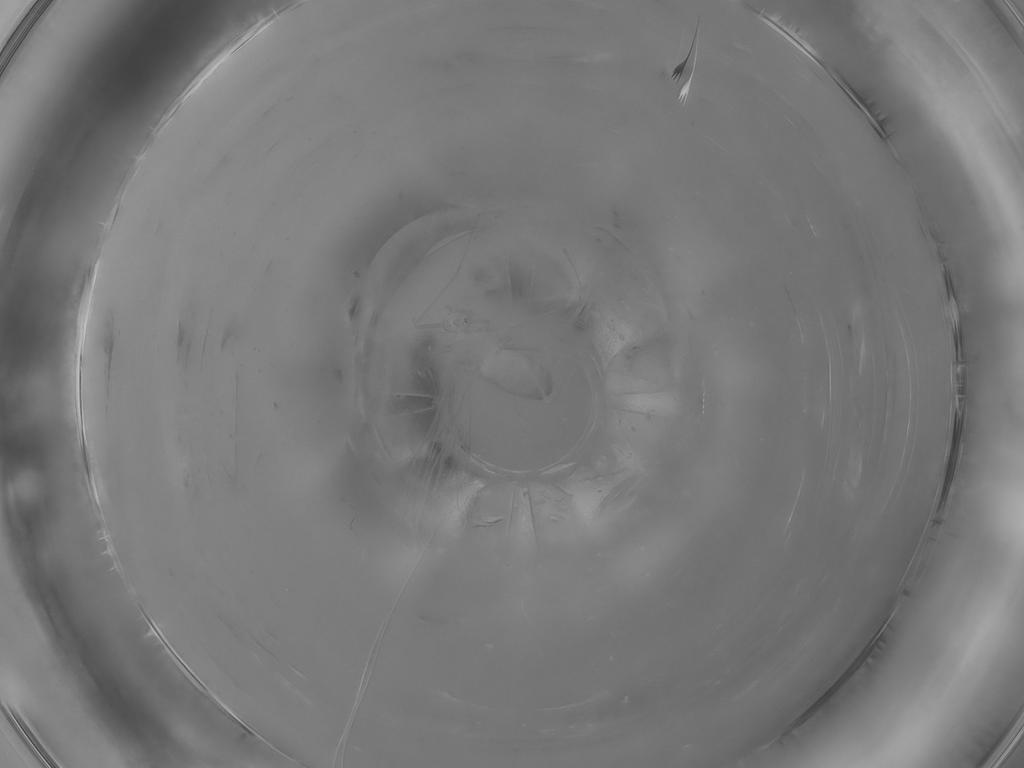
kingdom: Animalia
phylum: Arthropoda
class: Insecta
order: Diptera
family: Cecidomyiidae
